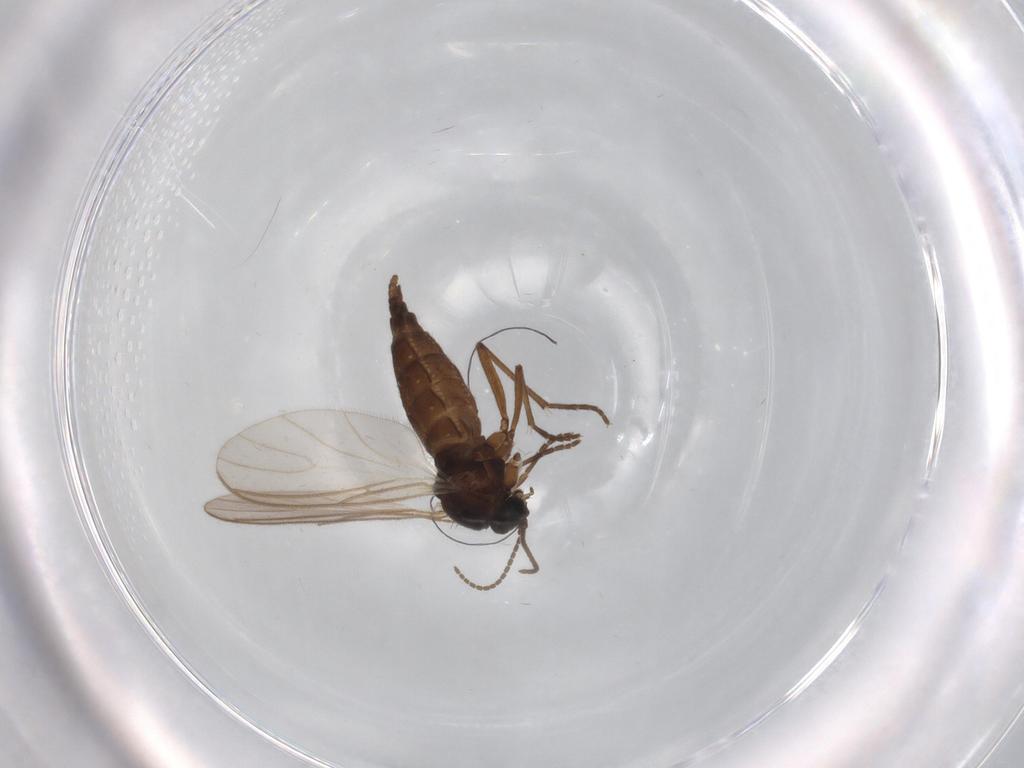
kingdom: Animalia
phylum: Arthropoda
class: Insecta
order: Diptera
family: Sciaridae
